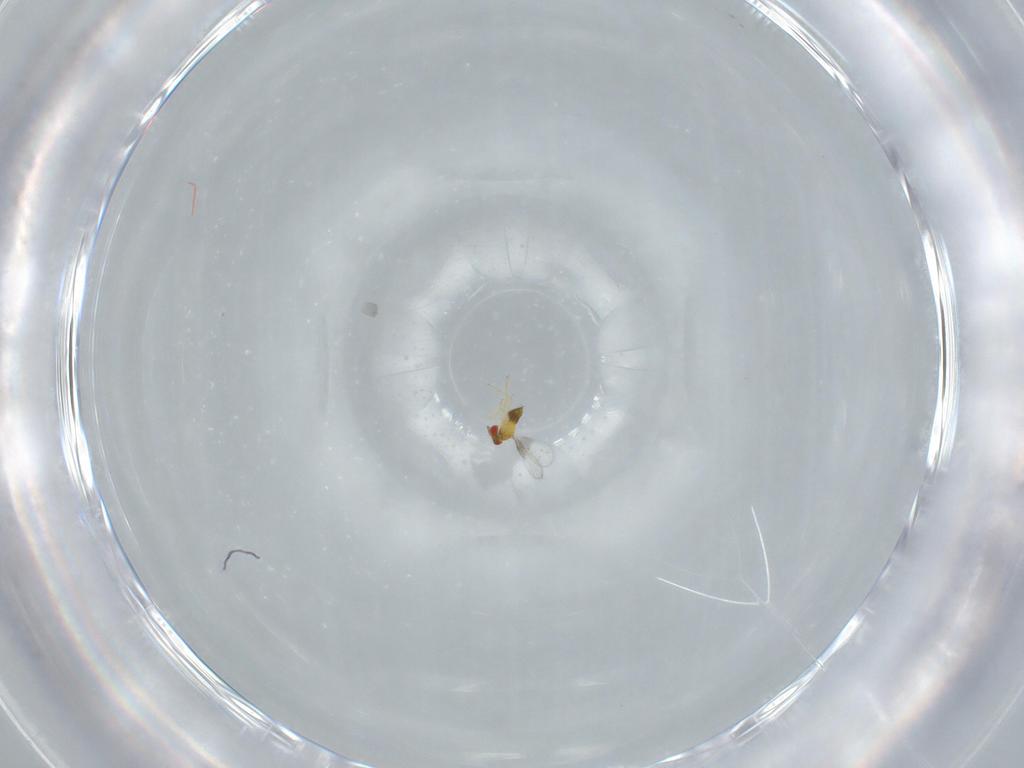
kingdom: Animalia
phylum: Arthropoda
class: Insecta
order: Hymenoptera
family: Trichogrammatidae
